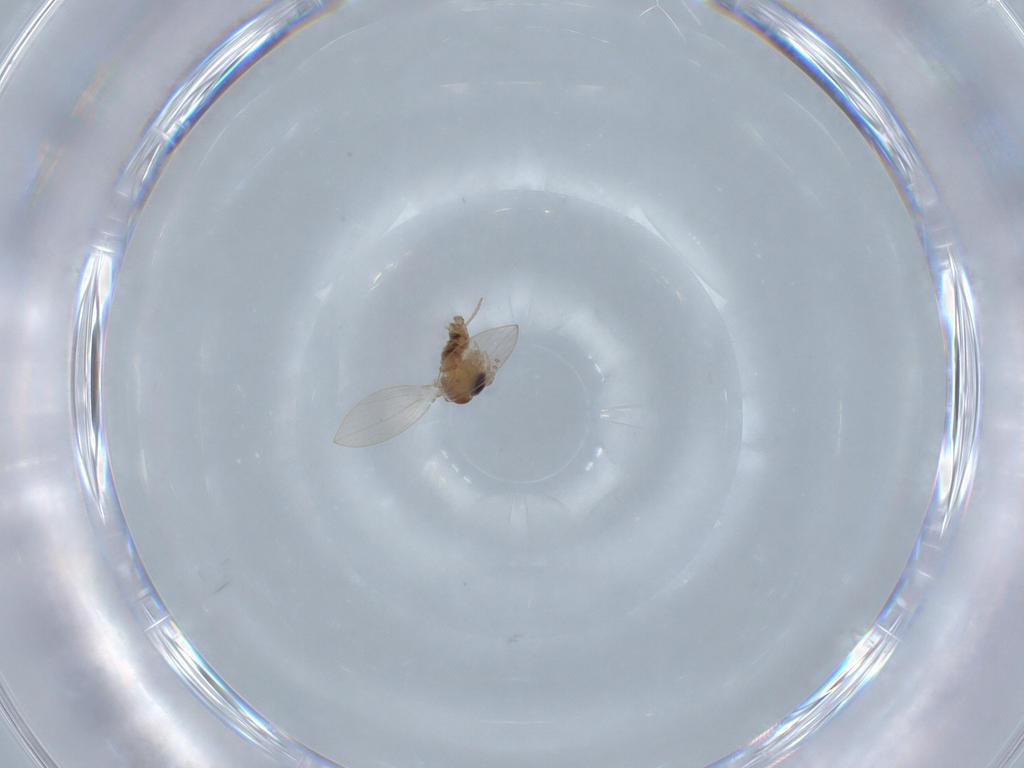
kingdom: Animalia
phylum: Arthropoda
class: Insecta
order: Diptera
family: Psychodidae
